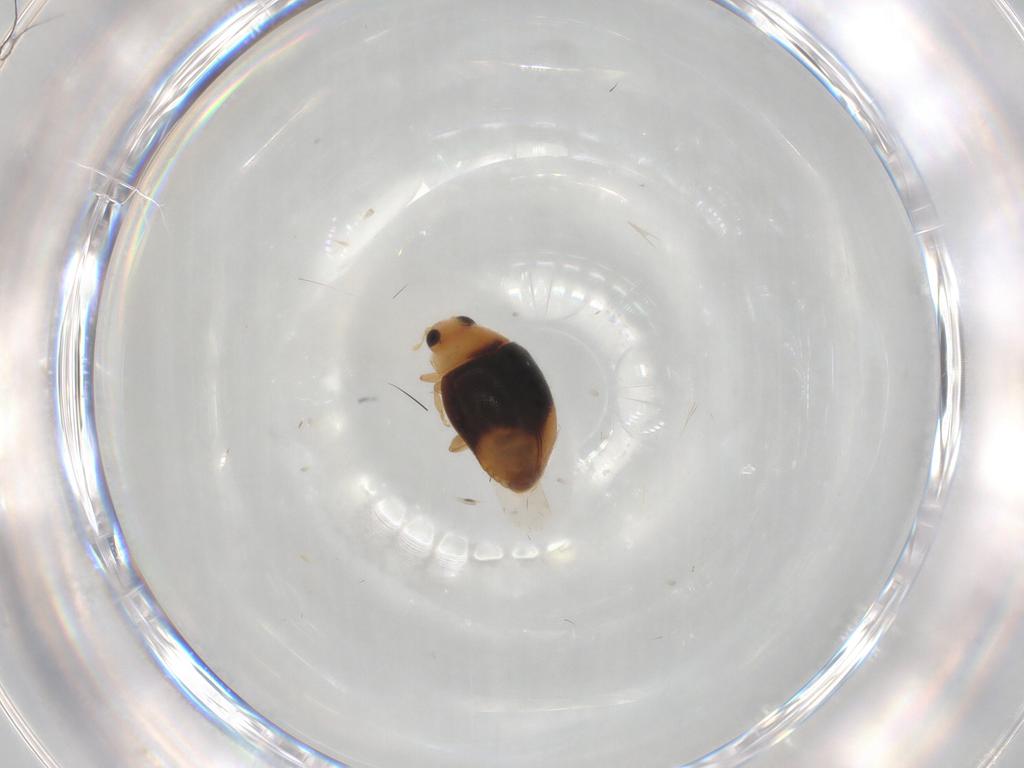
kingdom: Animalia
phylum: Arthropoda
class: Insecta
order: Coleoptera
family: Coccinellidae
